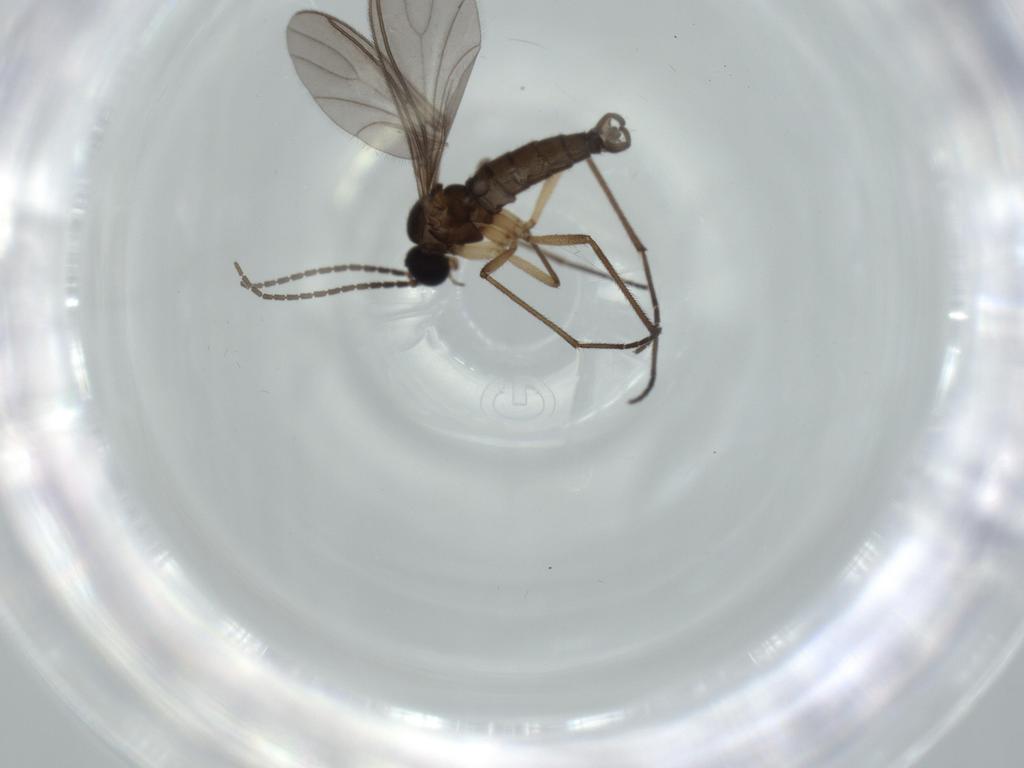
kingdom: Animalia
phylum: Arthropoda
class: Insecta
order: Diptera
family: Sciaridae
